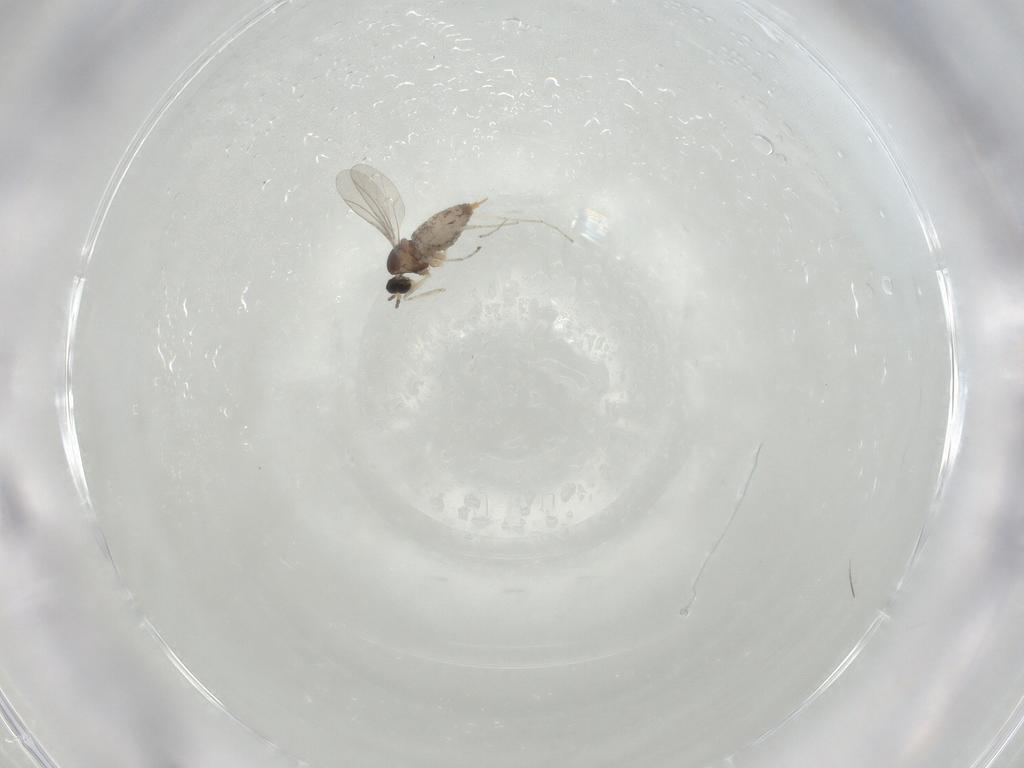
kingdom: Animalia
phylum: Arthropoda
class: Insecta
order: Diptera
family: Cecidomyiidae
